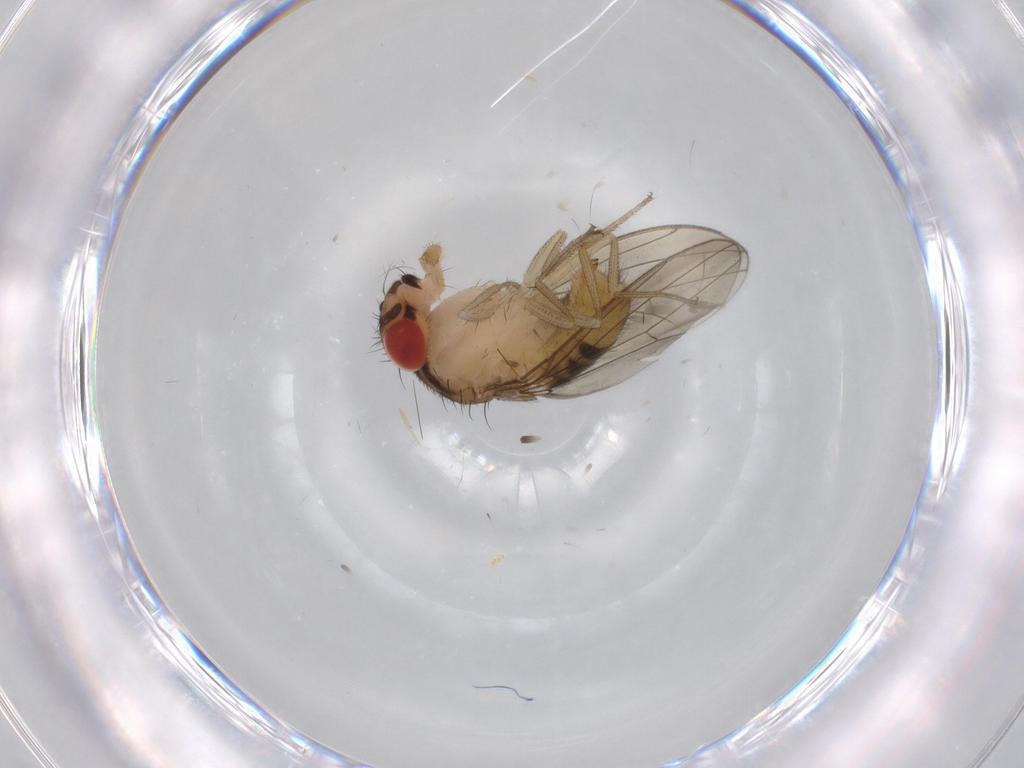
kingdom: Animalia
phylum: Arthropoda
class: Insecta
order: Diptera
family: Drosophilidae
